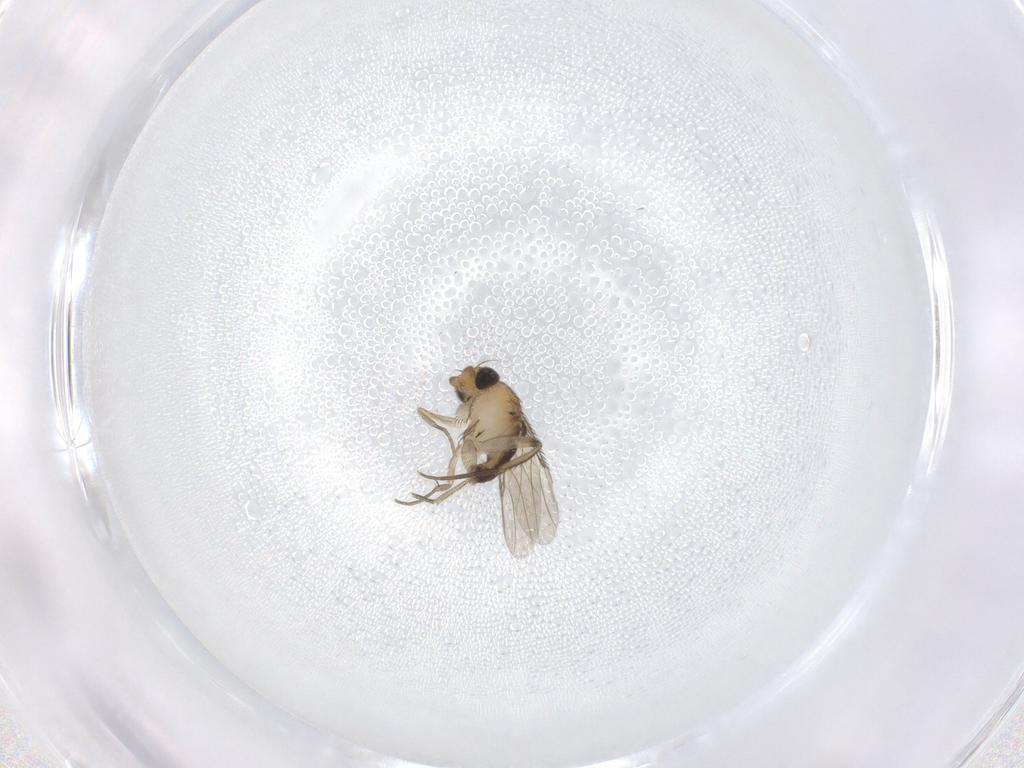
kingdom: Animalia
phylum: Arthropoda
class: Insecta
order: Diptera
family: Phoridae
